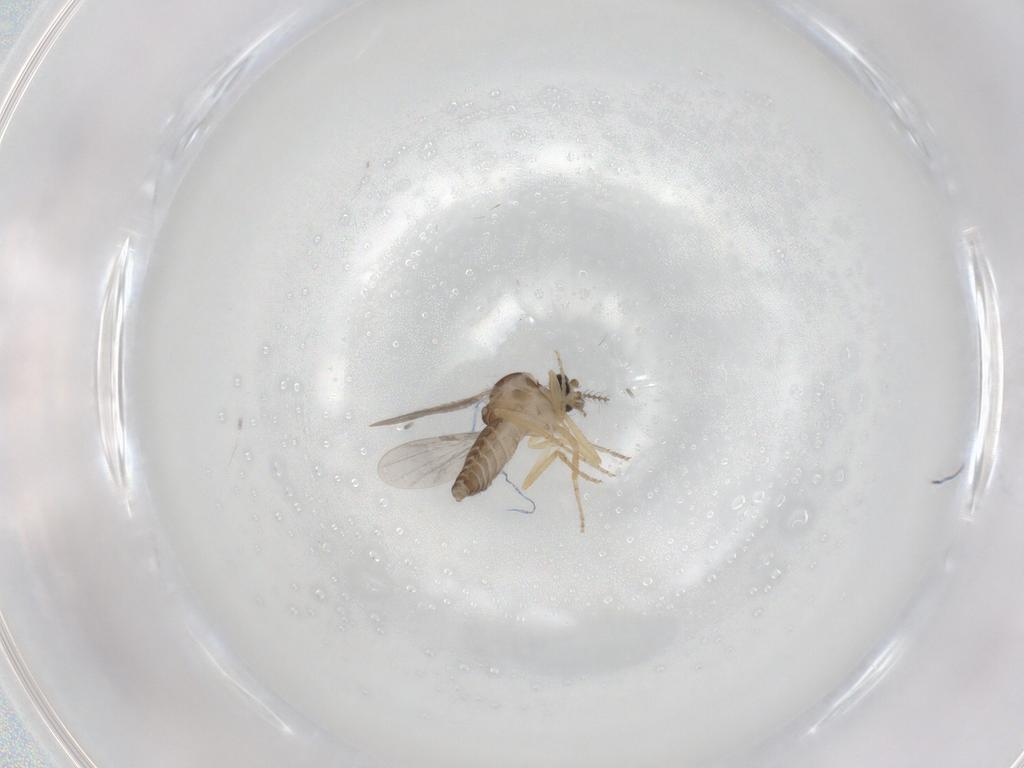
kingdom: Animalia
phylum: Arthropoda
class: Insecta
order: Diptera
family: Ceratopogonidae
